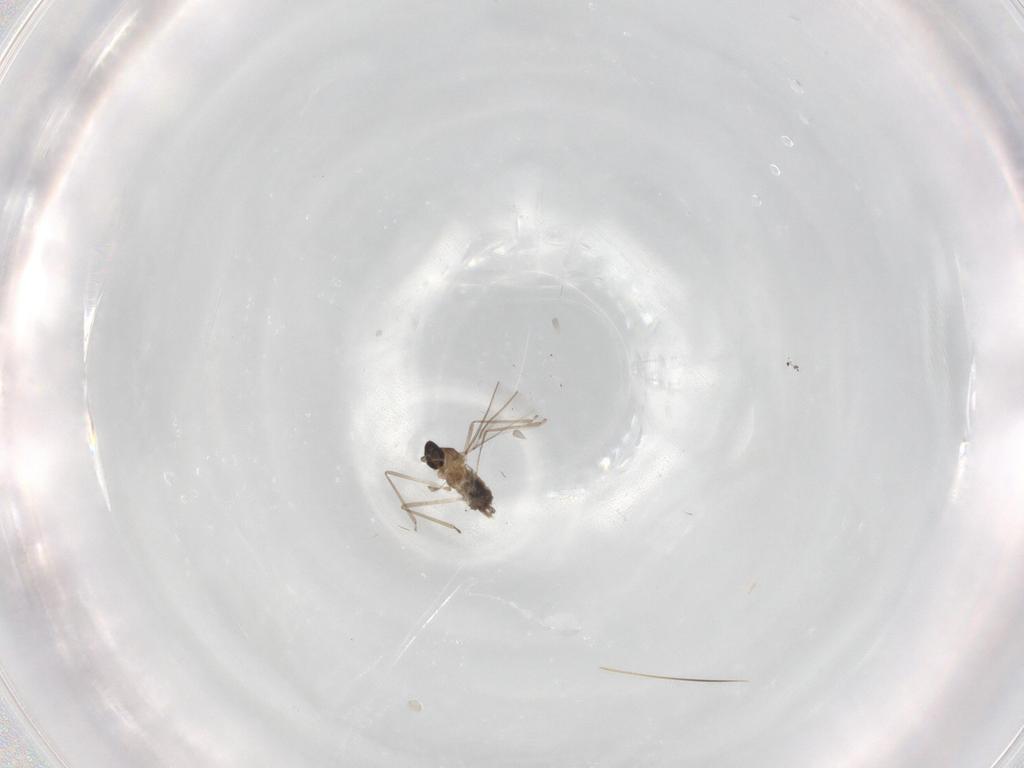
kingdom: Animalia
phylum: Arthropoda
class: Insecta
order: Diptera
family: Cecidomyiidae
